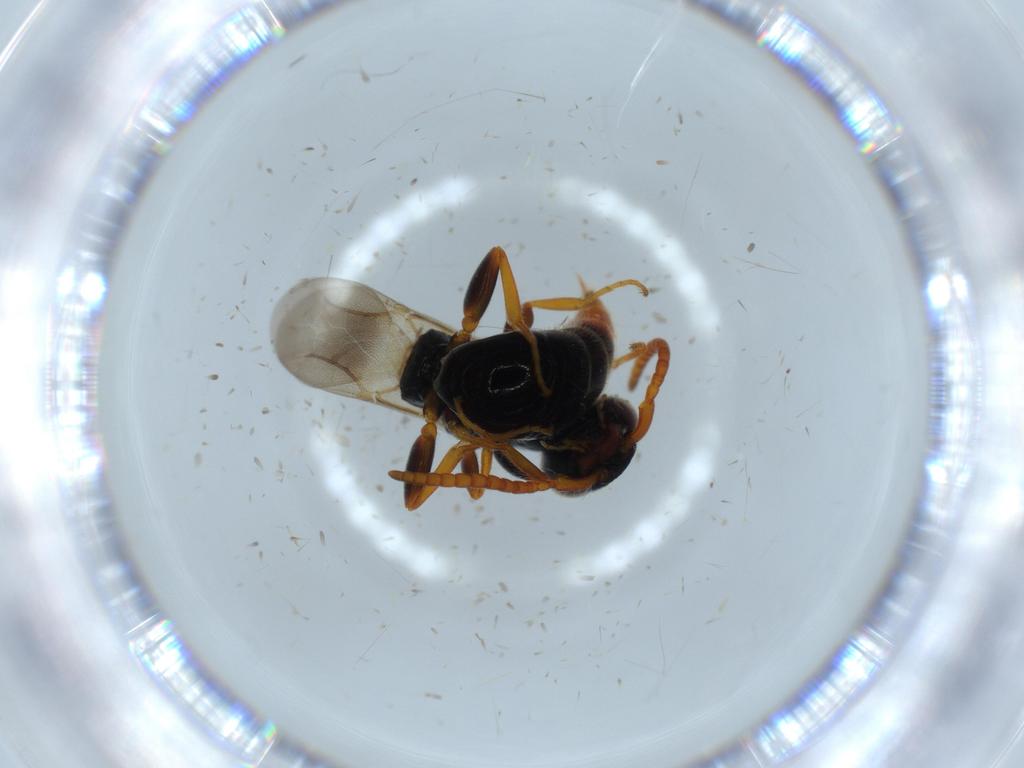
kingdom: Animalia
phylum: Arthropoda
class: Insecta
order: Hymenoptera
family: Bethylidae
